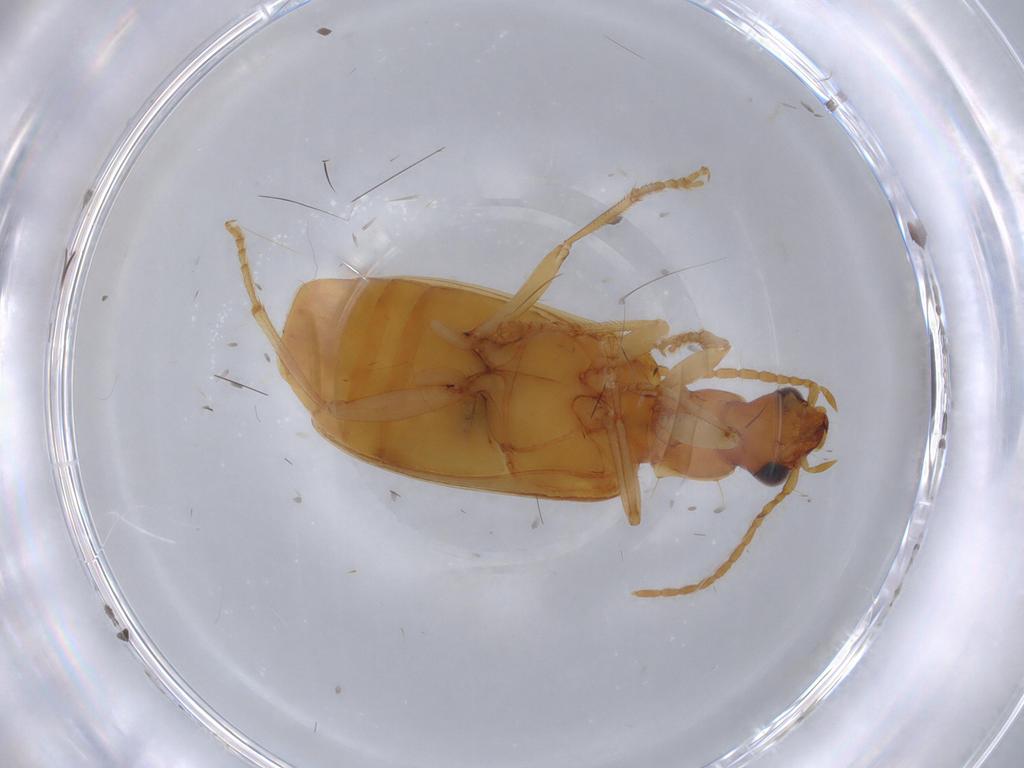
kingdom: Animalia
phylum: Arthropoda
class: Insecta
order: Coleoptera
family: Carabidae
